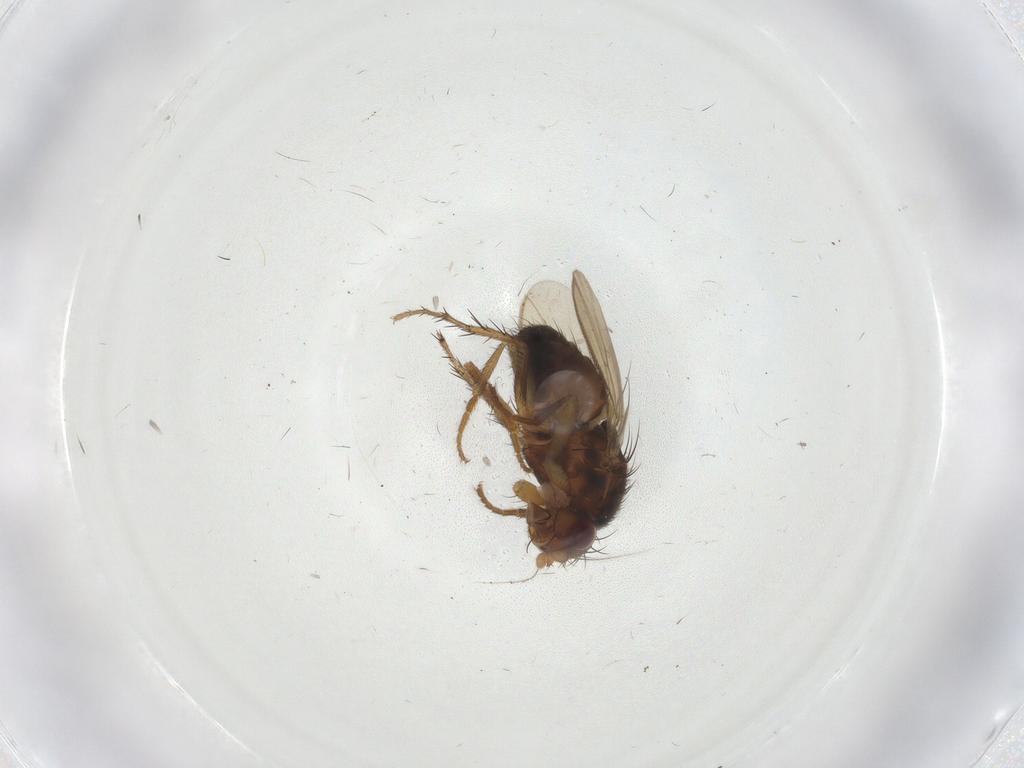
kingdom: Animalia
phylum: Arthropoda
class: Insecta
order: Diptera
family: Sphaeroceridae
